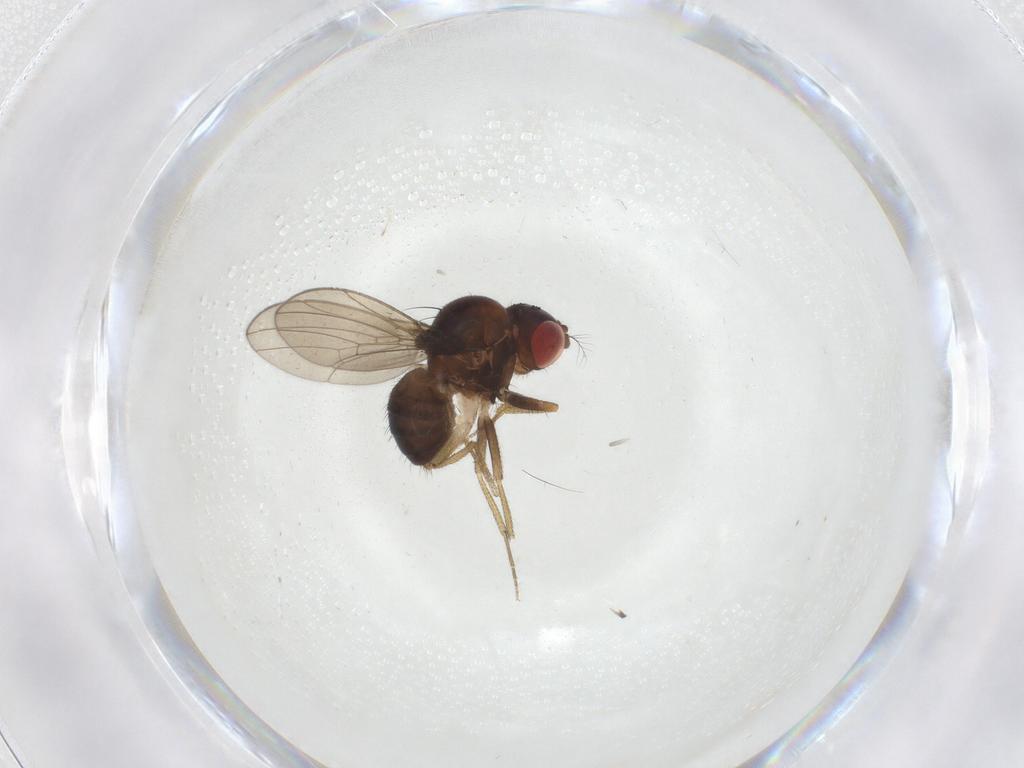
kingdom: Animalia
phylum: Arthropoda
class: Insecta
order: Diptera
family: Drosophilidae
